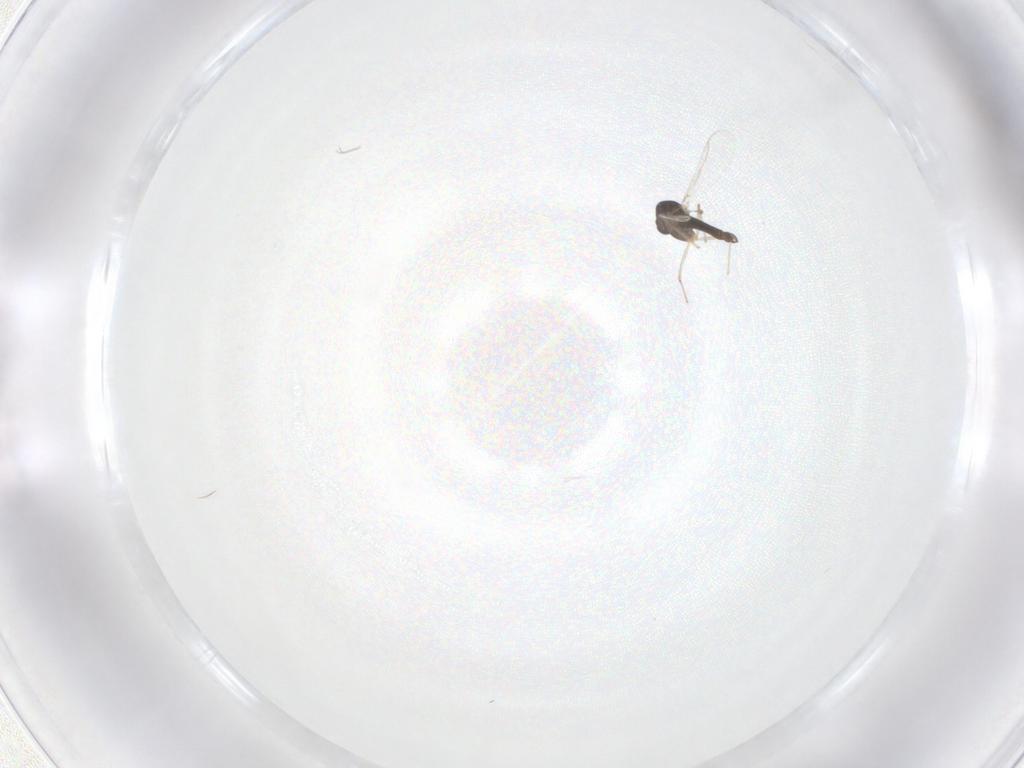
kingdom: Animalia
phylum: Arthropoda
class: Insecta
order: Diptera
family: Chironomidae
